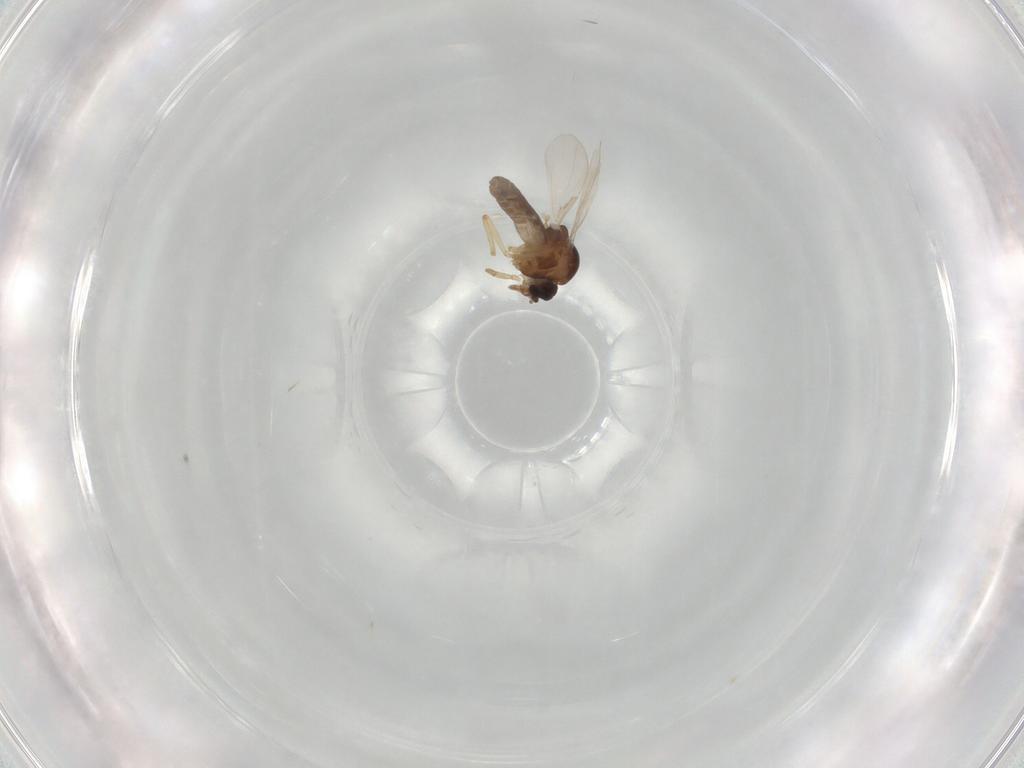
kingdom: Animalia
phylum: Arthropoda
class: Insecta
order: Diptera
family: Ceratopogonidae
